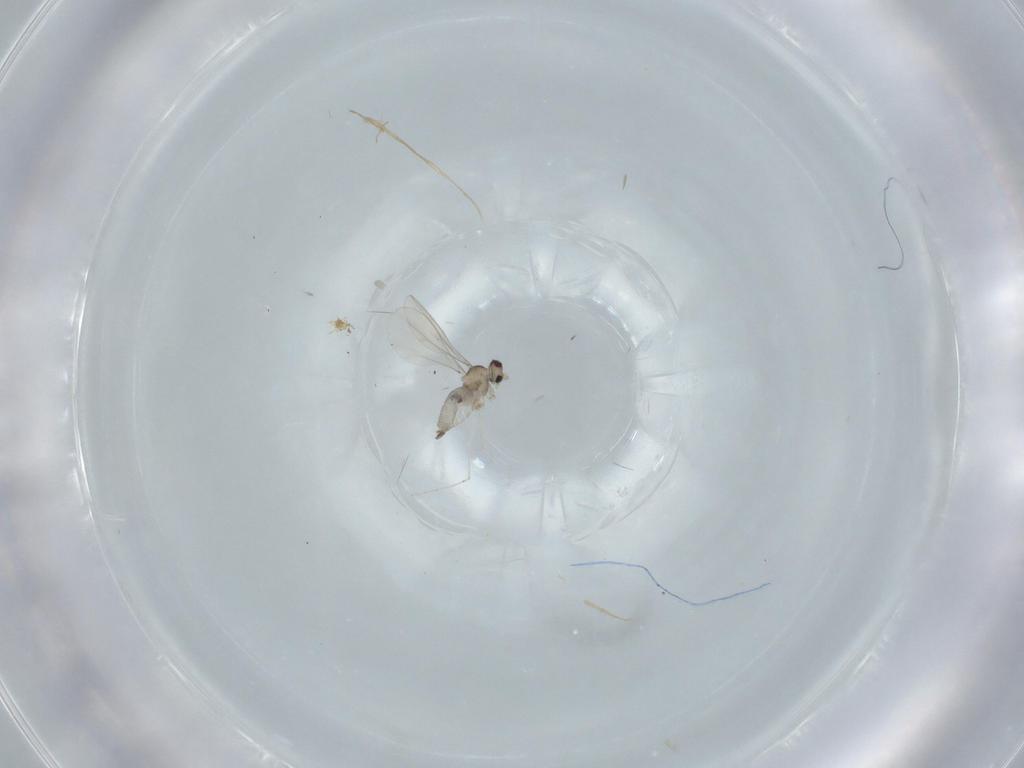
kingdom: Animalia
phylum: Arthropoda
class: Insecta
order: Diptera
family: Cecidomyiidae
